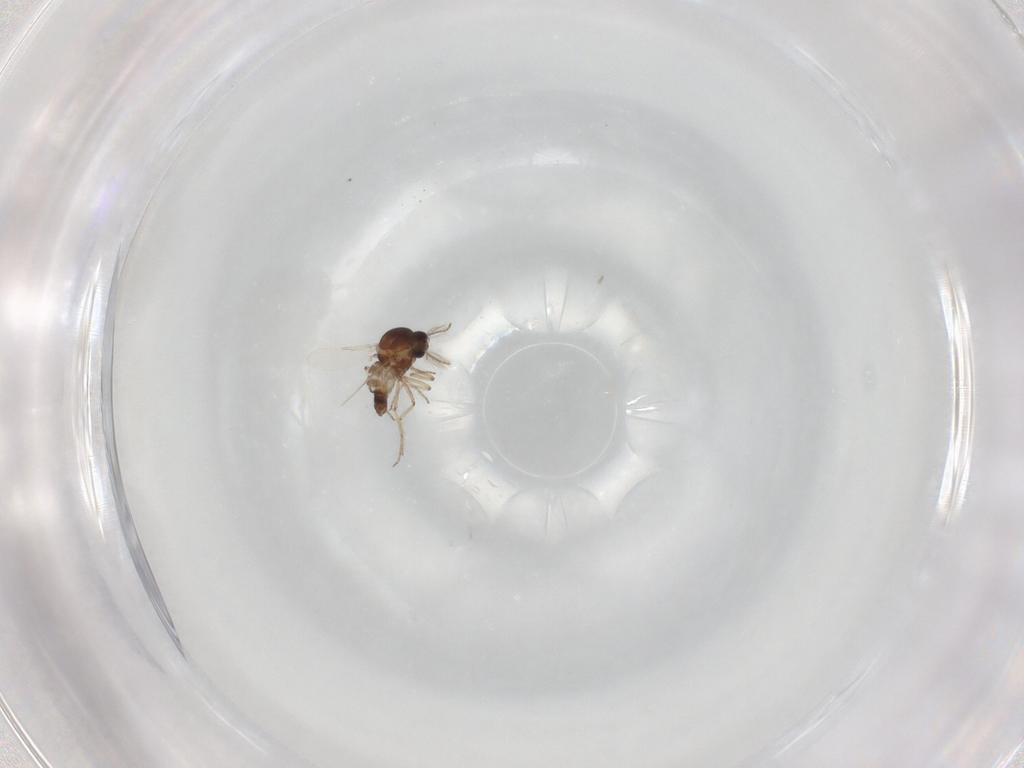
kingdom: Animalia
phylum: Arthropoda
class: Insecta
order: Diptera
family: Ceratopogonidae
